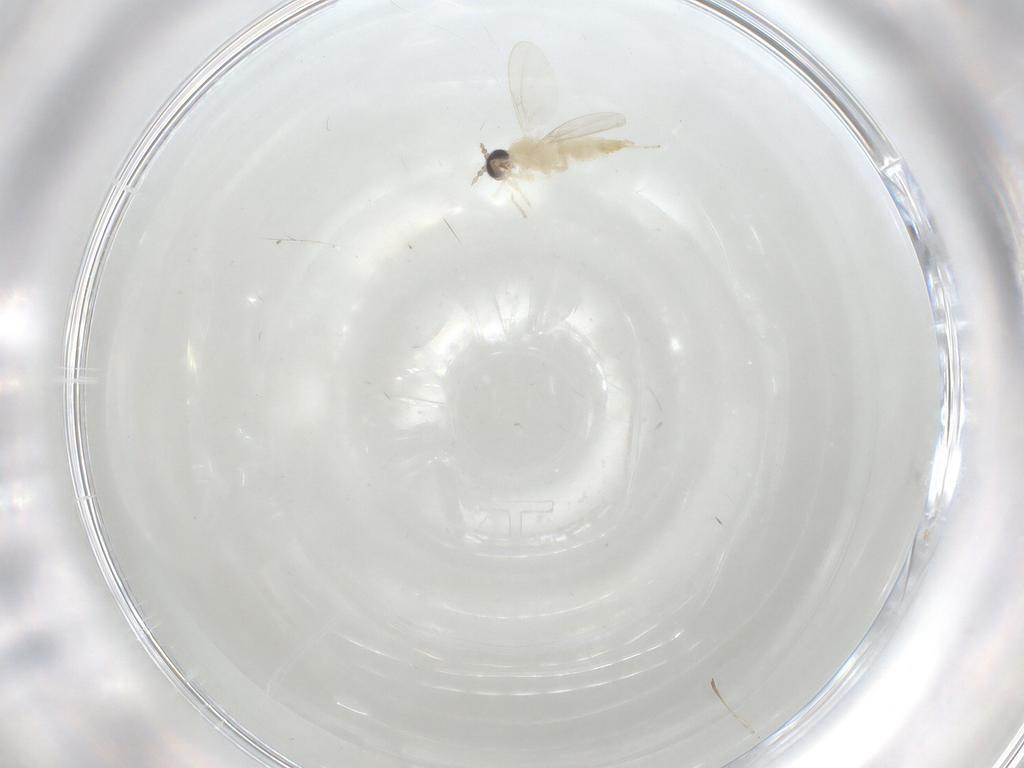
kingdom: Animalia
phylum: Arthropoda
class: Insecta
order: Diptera
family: Cecidomyiidae
